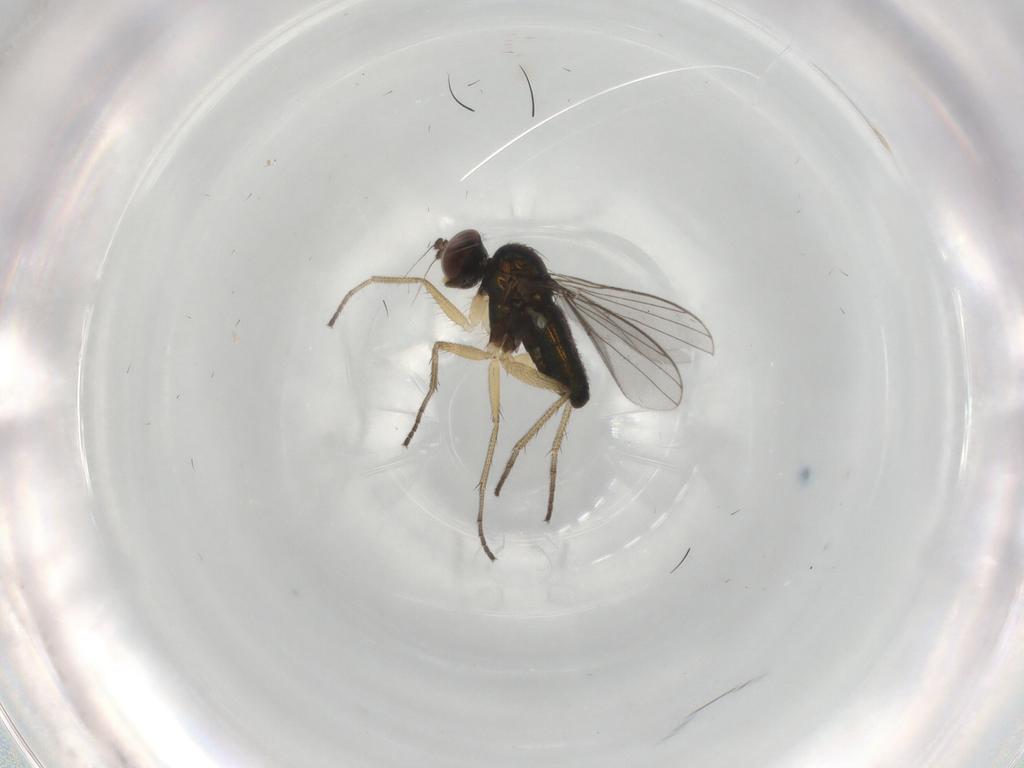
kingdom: Animalia
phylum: Arthropoda
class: Insecta
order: Diptera
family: Dolichopodidae
